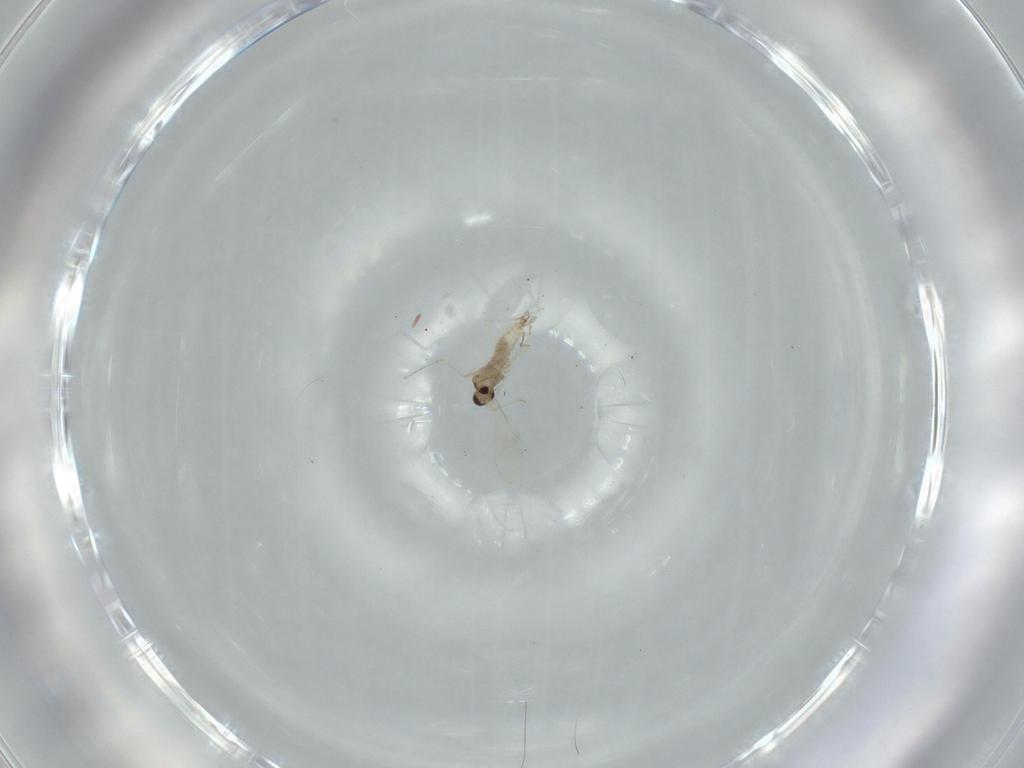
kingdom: Animalia
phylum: Arthropoda
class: Insecta
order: Diptera
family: Cecidomyiidae
